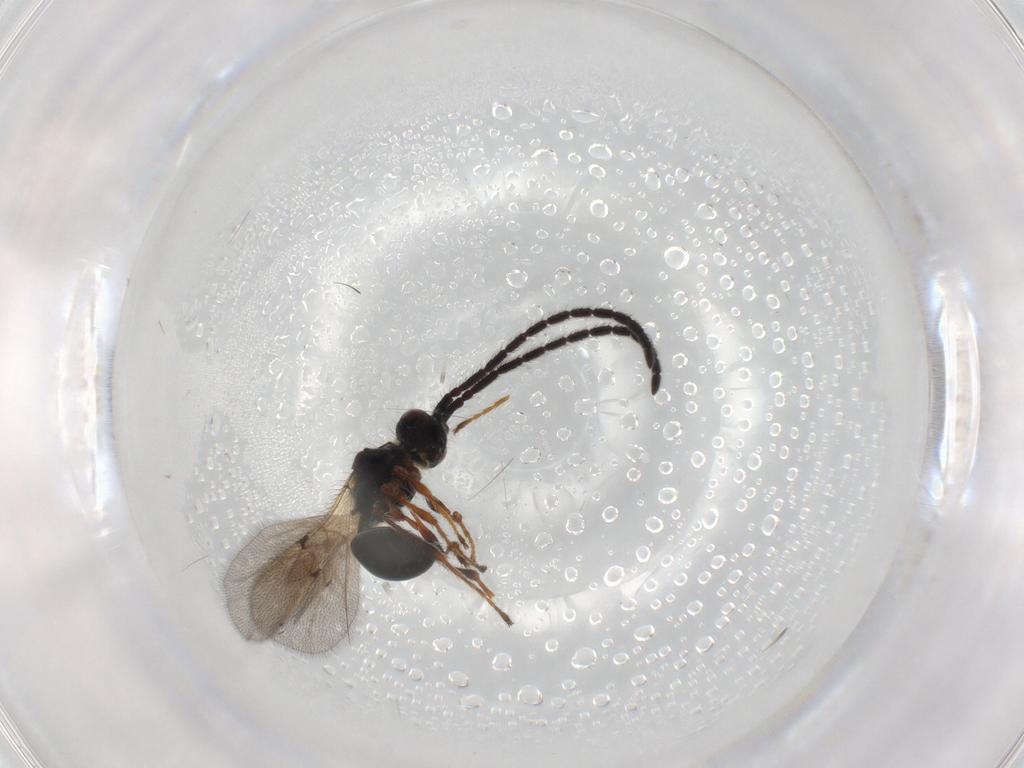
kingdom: Animalia
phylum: Arthropoda
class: Insecta
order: Hymenoptera
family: Diapriidae
